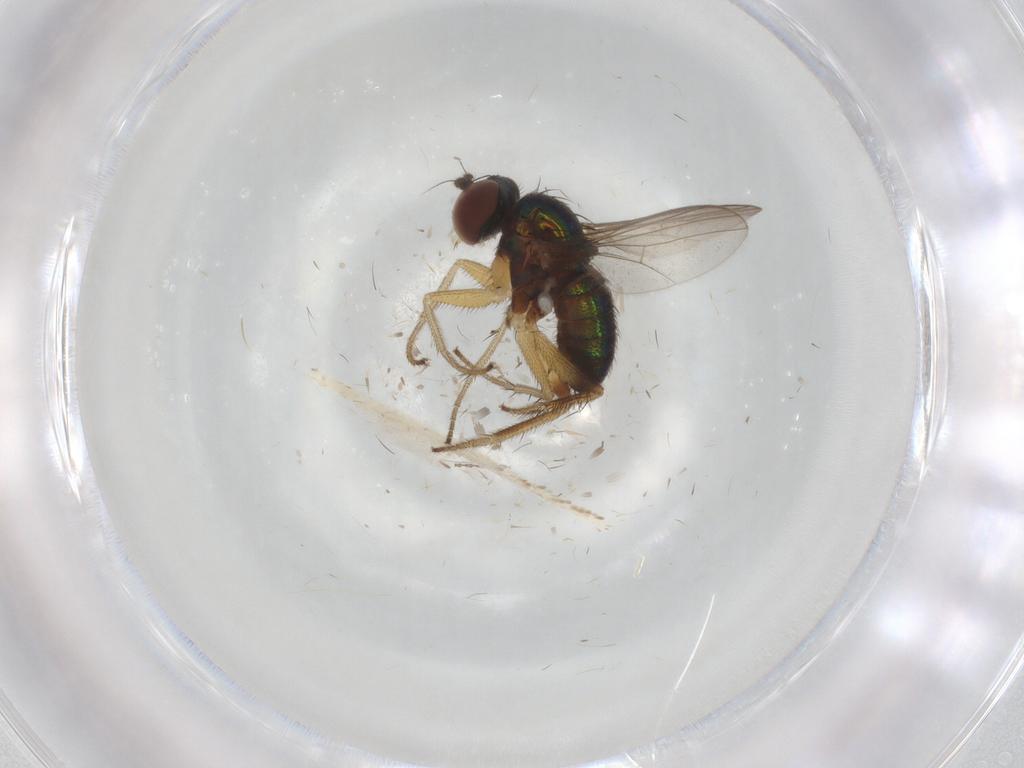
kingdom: Animalia
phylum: Arthropoda
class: Insecta
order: Diptera
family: Dolichopodidae
